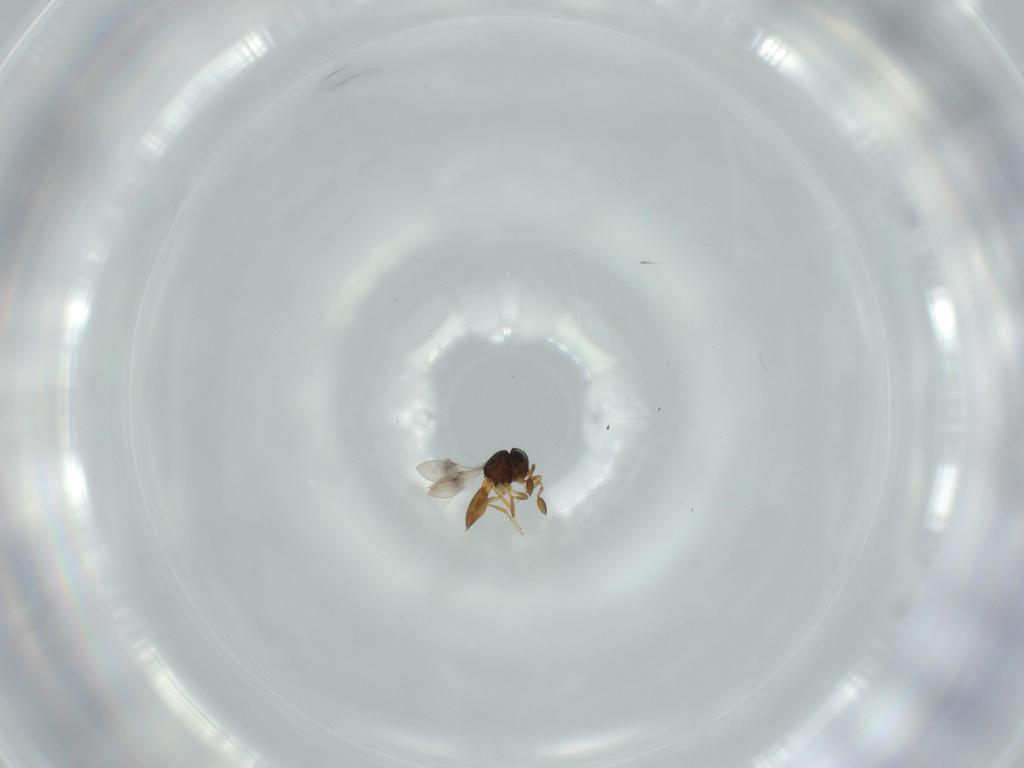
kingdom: Animalia
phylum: Arthropoda
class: Insecta
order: Hymenoptera
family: Scelionidae
